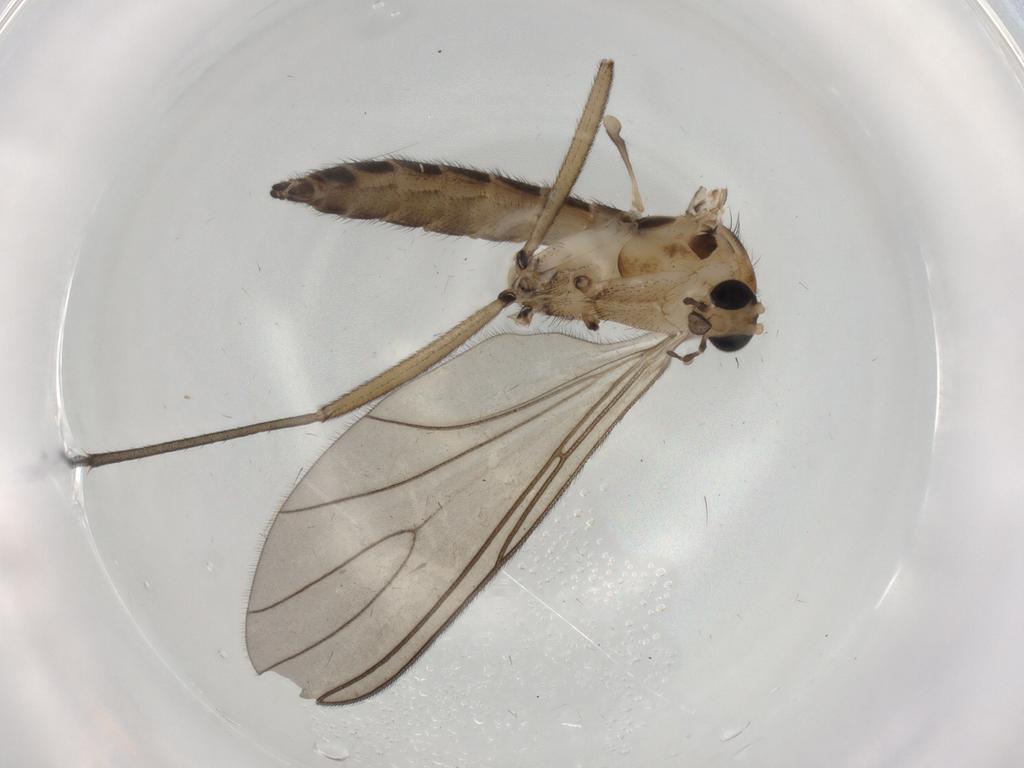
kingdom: Animalia
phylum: Arthropoda
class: Insecta
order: Diptera
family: Sciaridae
